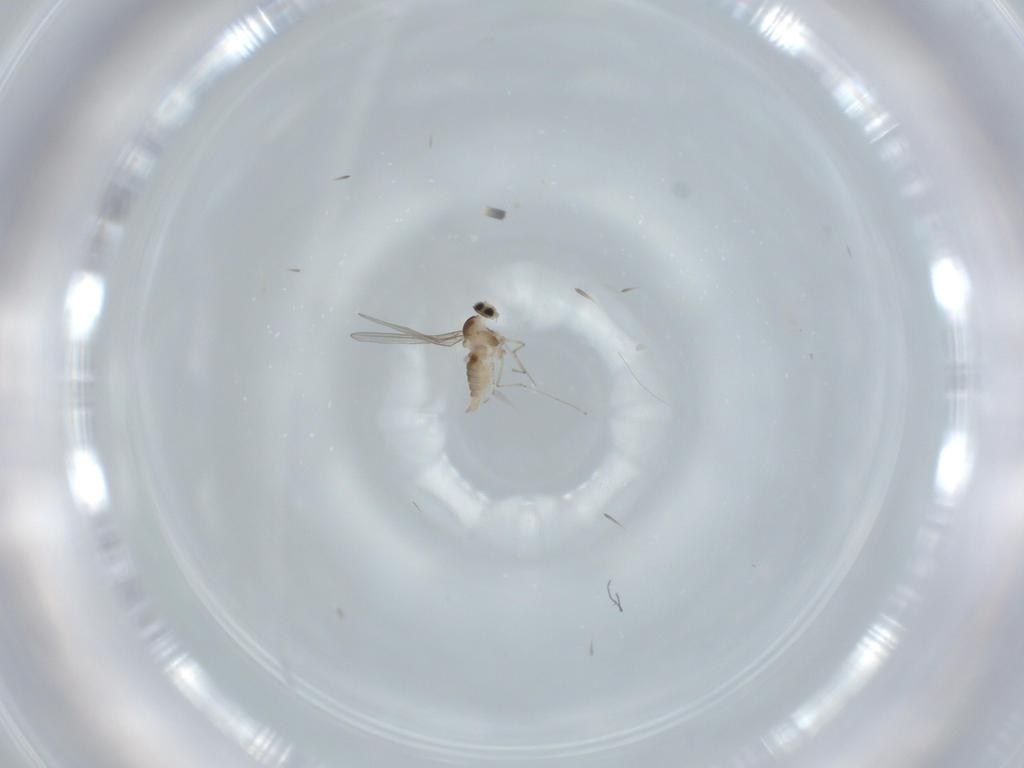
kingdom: Animalia
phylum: Arthropoda
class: Insecta
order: Diptera
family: Cecidomyiidae
